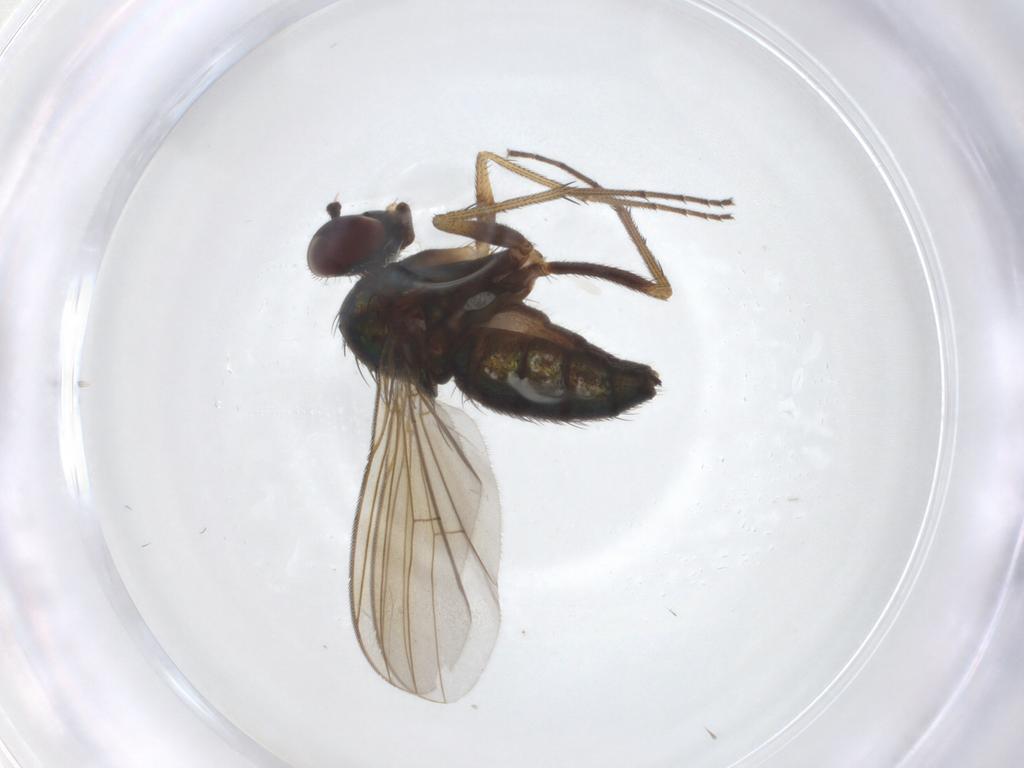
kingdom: Animalia
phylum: Arthropoda
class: Insecta
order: Diptera
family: Dolichopodidae
